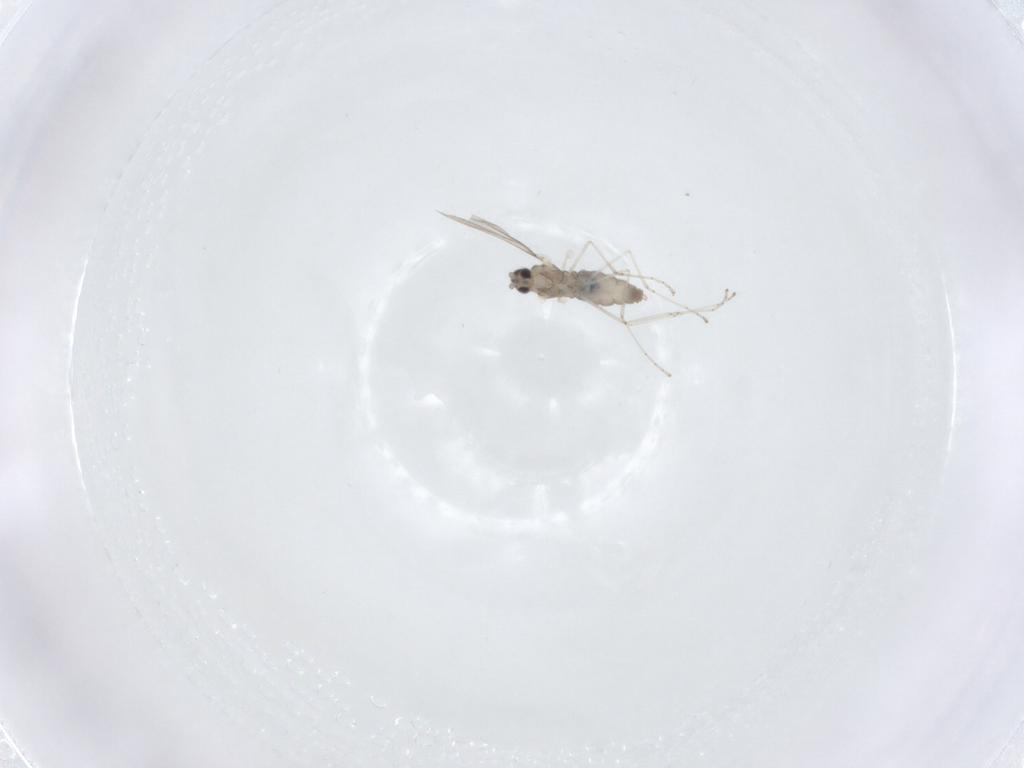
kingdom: Animalia
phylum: Arthropoda
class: Insecta
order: Diptera
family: Cecidomyiidae
